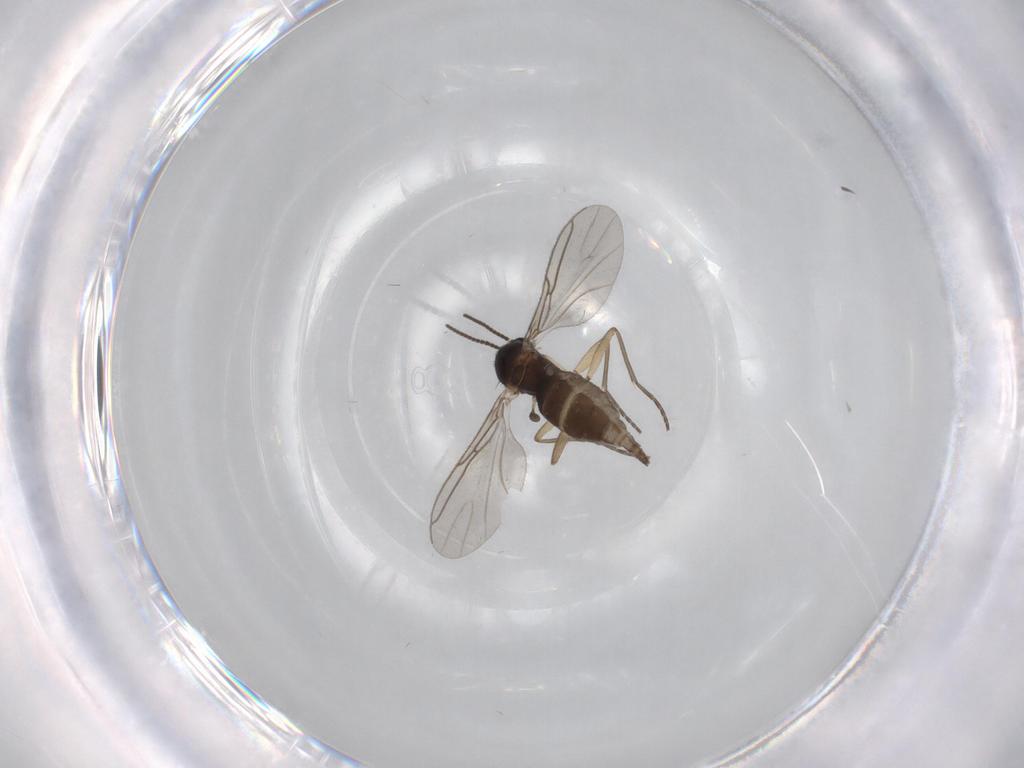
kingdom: Animalia
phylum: Arthropoda
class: Insecta
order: Diptera
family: Sciaridae
